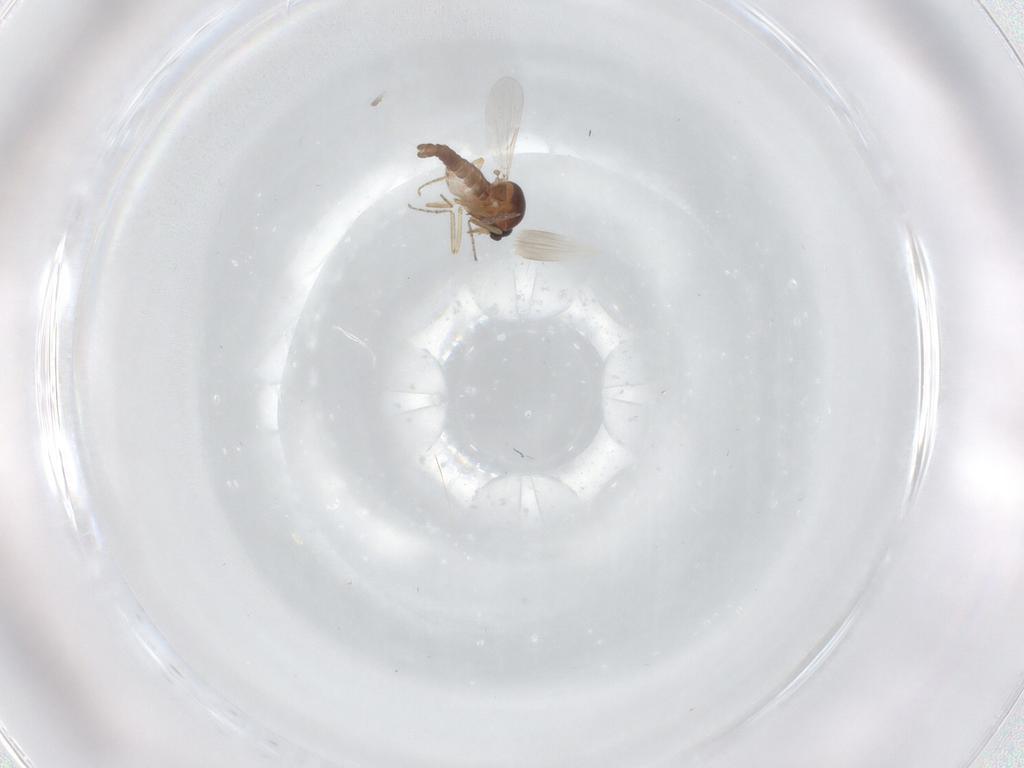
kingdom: Animalia
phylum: Arthropoda
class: Insecta
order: Diptera
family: Ceratopogonidae
